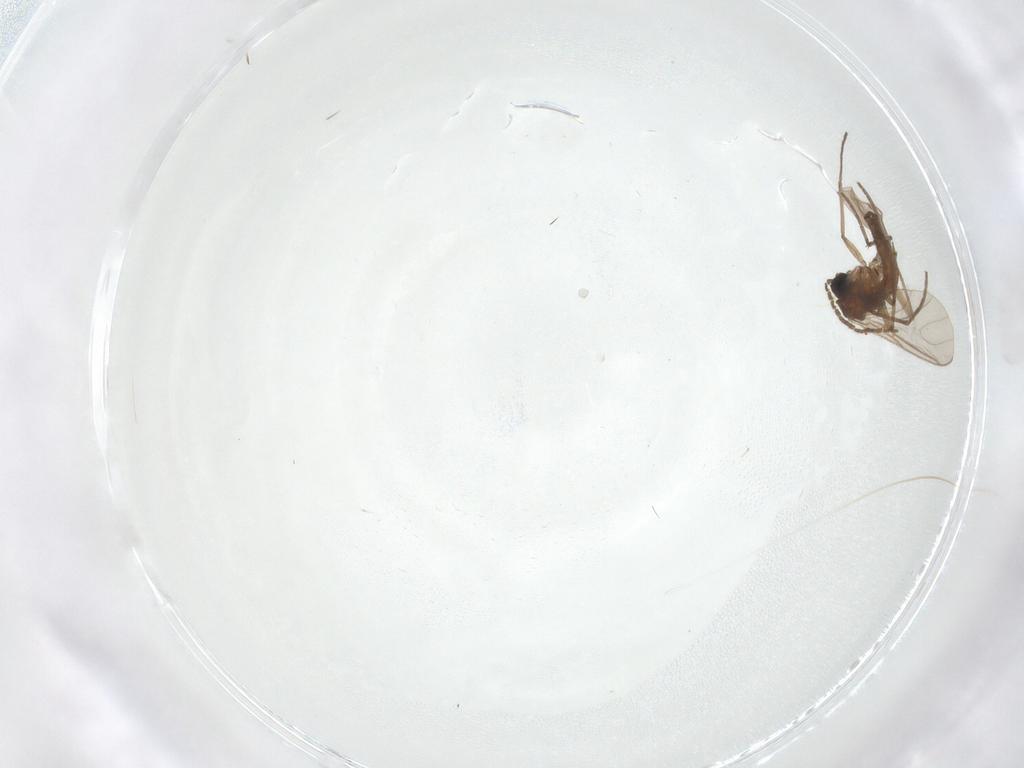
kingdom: Animalia
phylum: Arthropoda
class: Insecta
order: Diptera
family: Sciaridae
